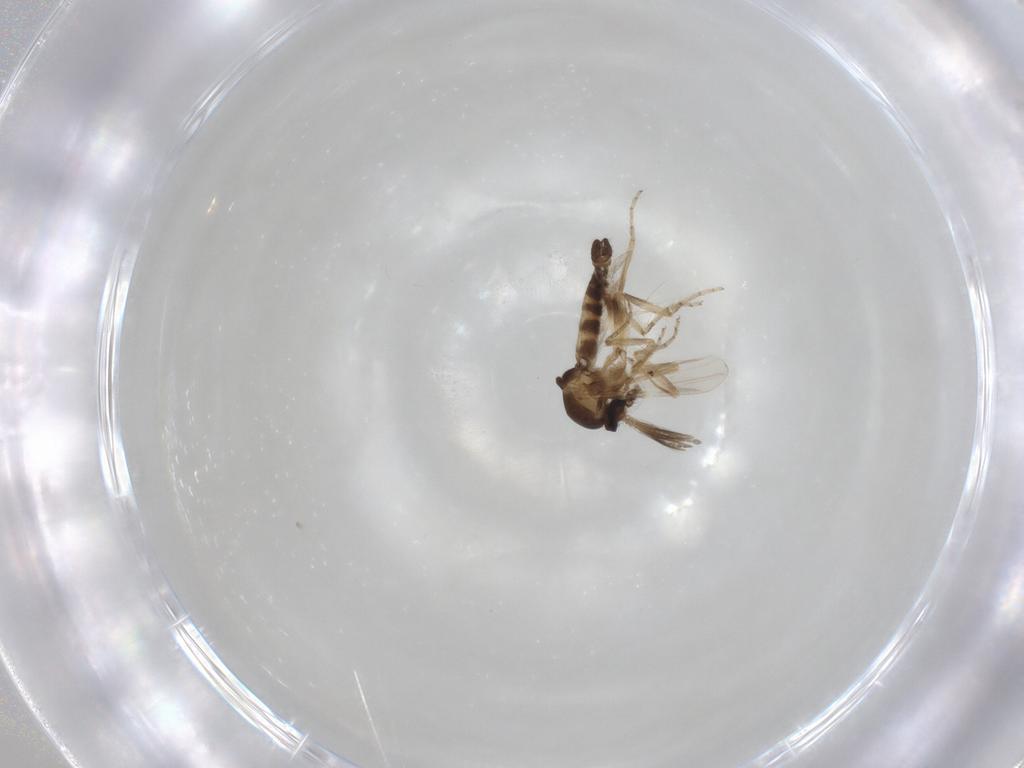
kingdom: Animalia
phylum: Arthropoda
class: Insecta
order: Diptera
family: Ceratopogonidae
